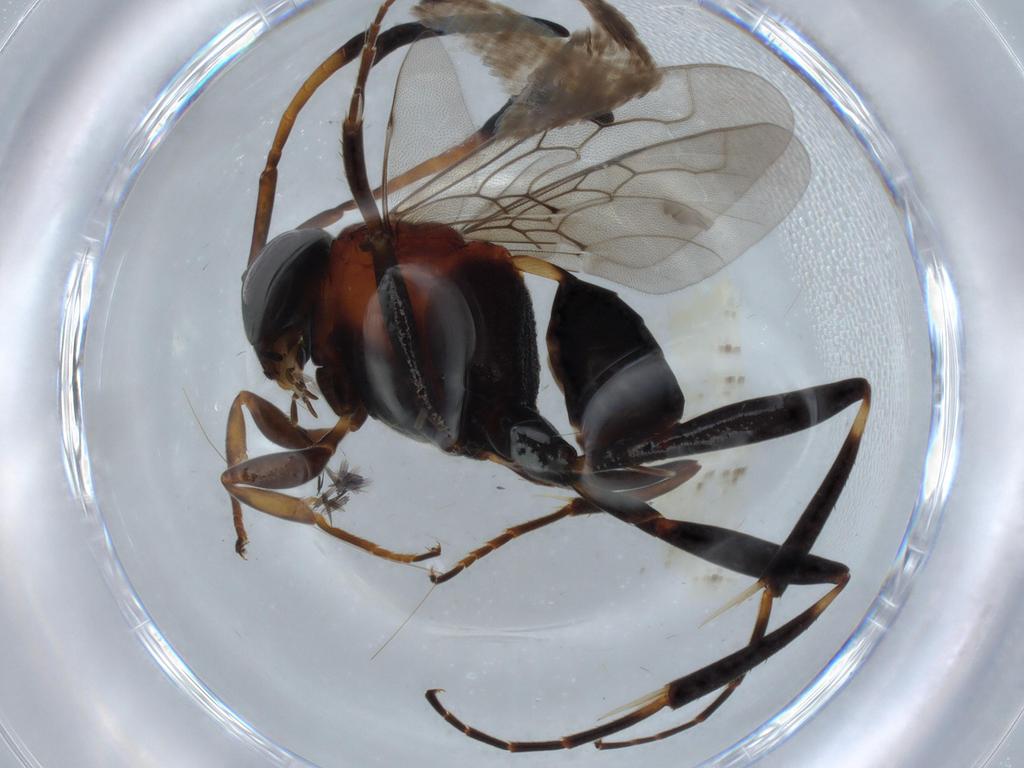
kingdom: Animalia
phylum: Arthropoda
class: Insecta
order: Hymenoptera
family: Evaniidae
